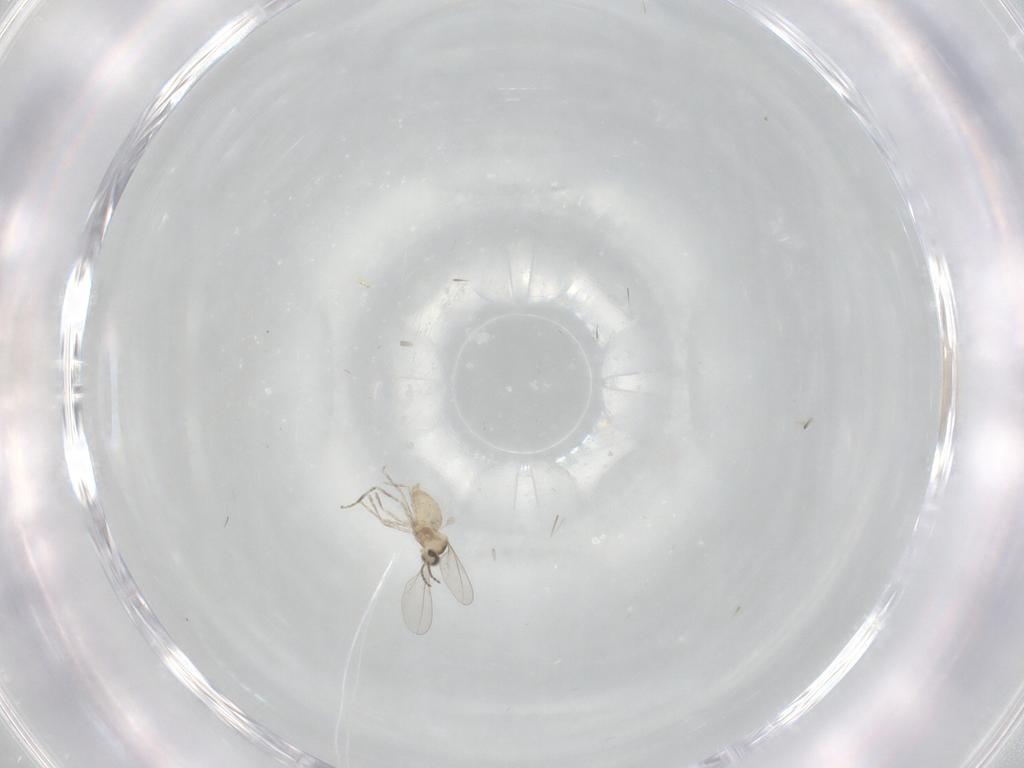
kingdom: Animalia
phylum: Arthropoda
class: Insecta
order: Diptera
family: Cecidomyiidae
